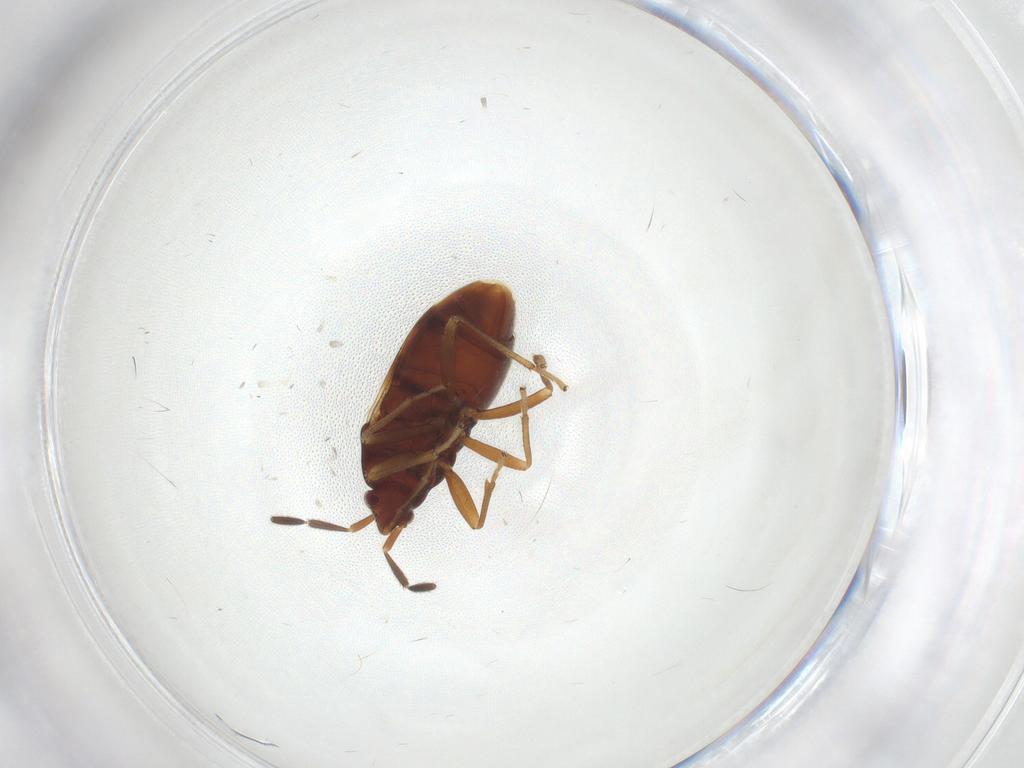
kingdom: Animalia
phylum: Arthropoda
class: Insecta
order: Hemiptera
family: Rhyparochromidae
